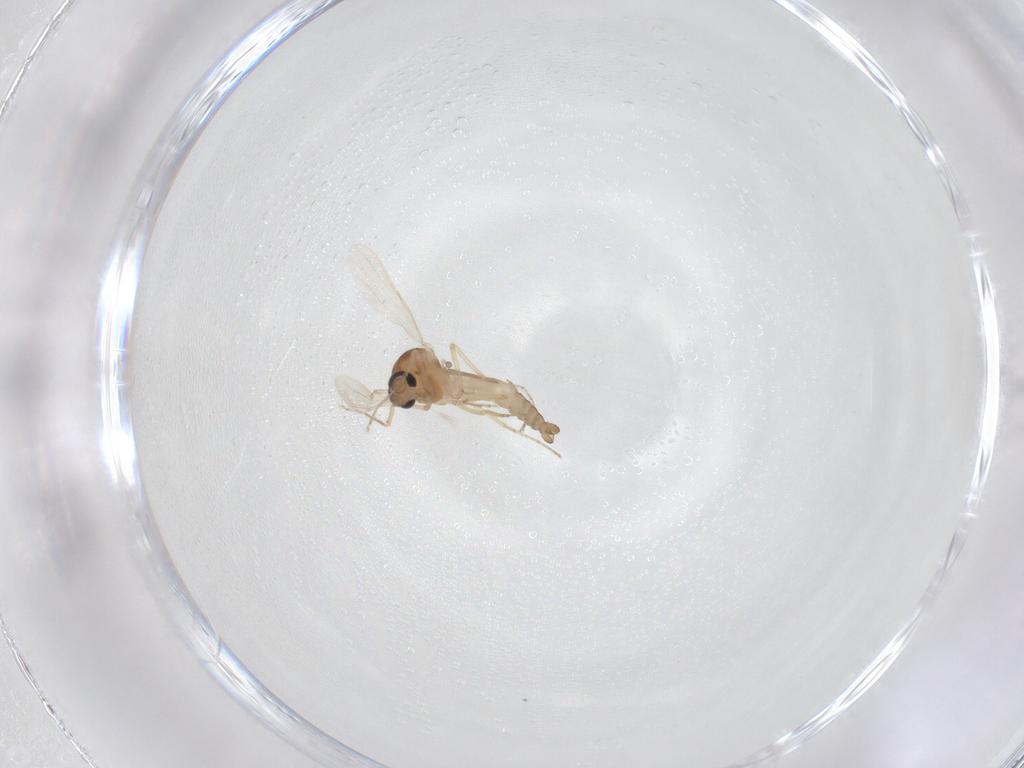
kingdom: Animalia
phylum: Arthropoda
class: Insecta
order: Diptera
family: Ceratopogonidae
